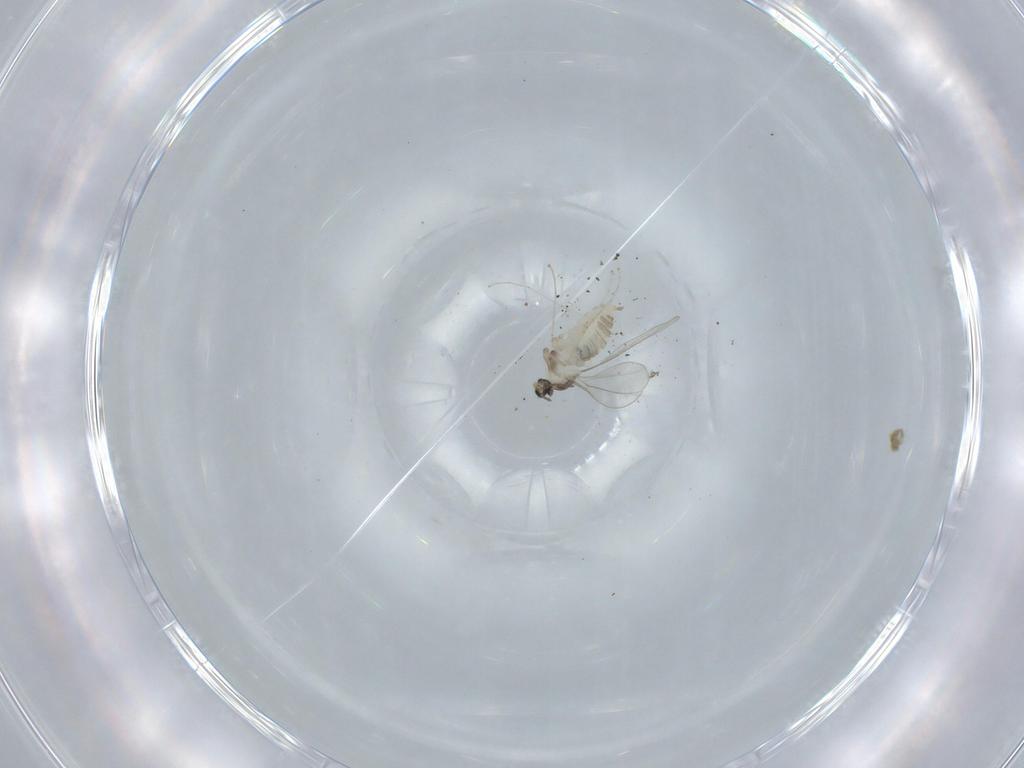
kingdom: Animalia
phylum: Arthropoda
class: Insecta
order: Diptera
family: Cecidomyiidae
